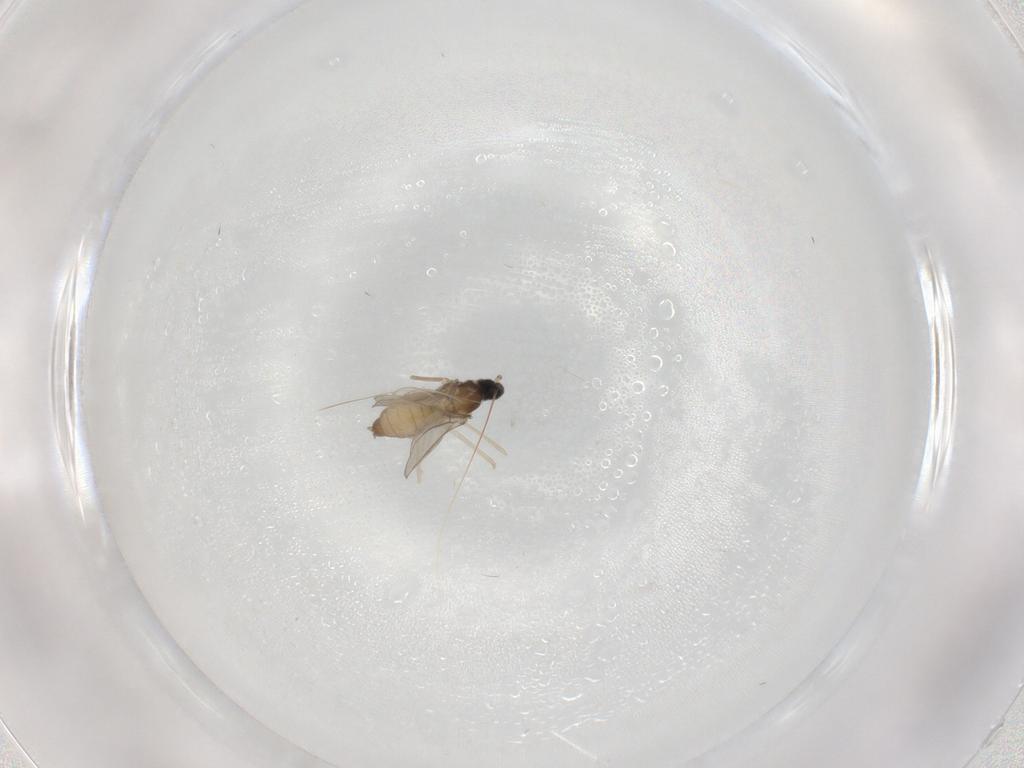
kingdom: Animalia
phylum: Arthropoda
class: Insecta
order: Diptera
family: Cecidomyiidae
